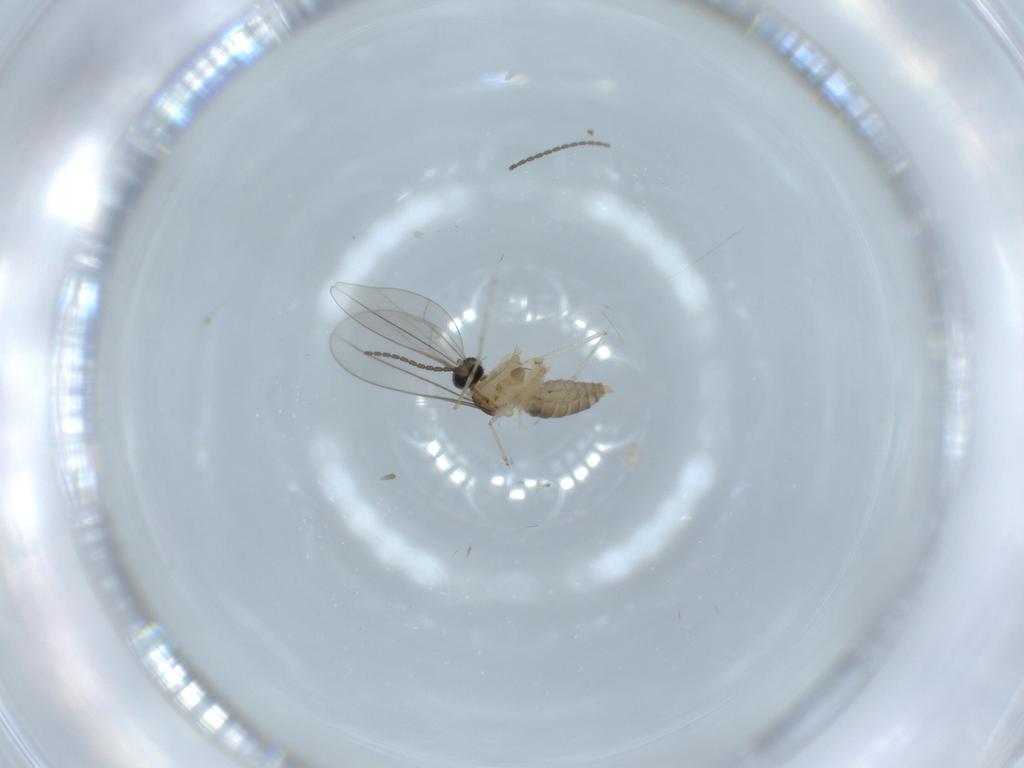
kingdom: Animalia
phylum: Arthropoda
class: Insecta
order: Diptera
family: Cecidomyiidae
